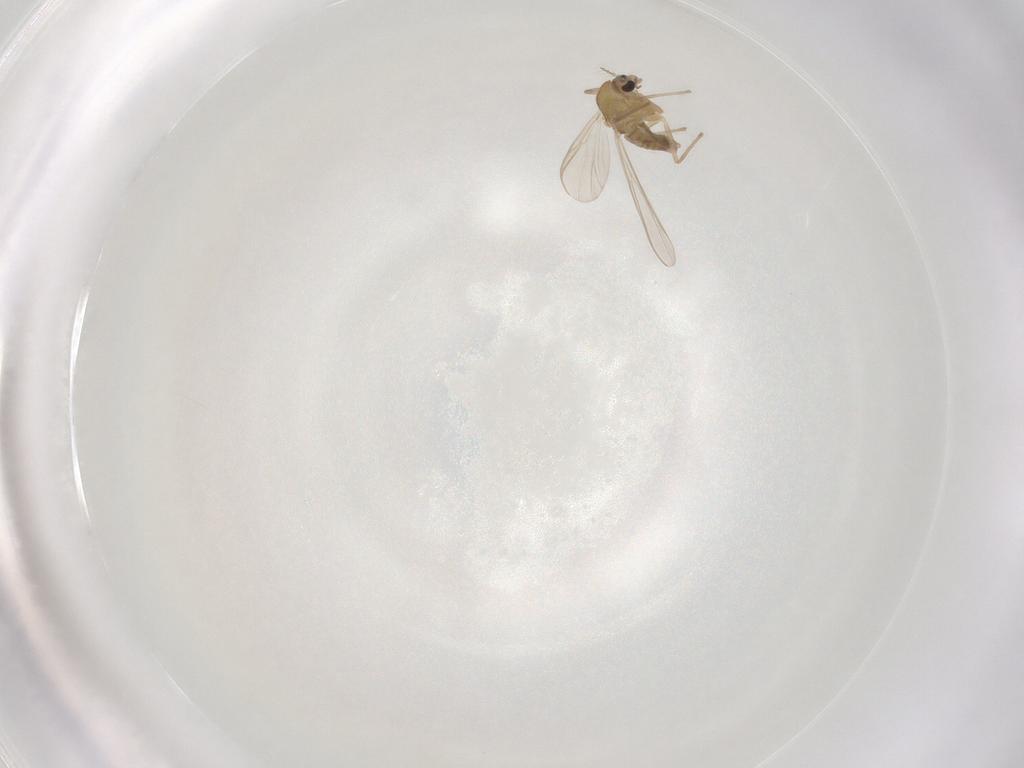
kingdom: Animalia
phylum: Arthropoda
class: Insecta
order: Diptera
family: Chironomidae
